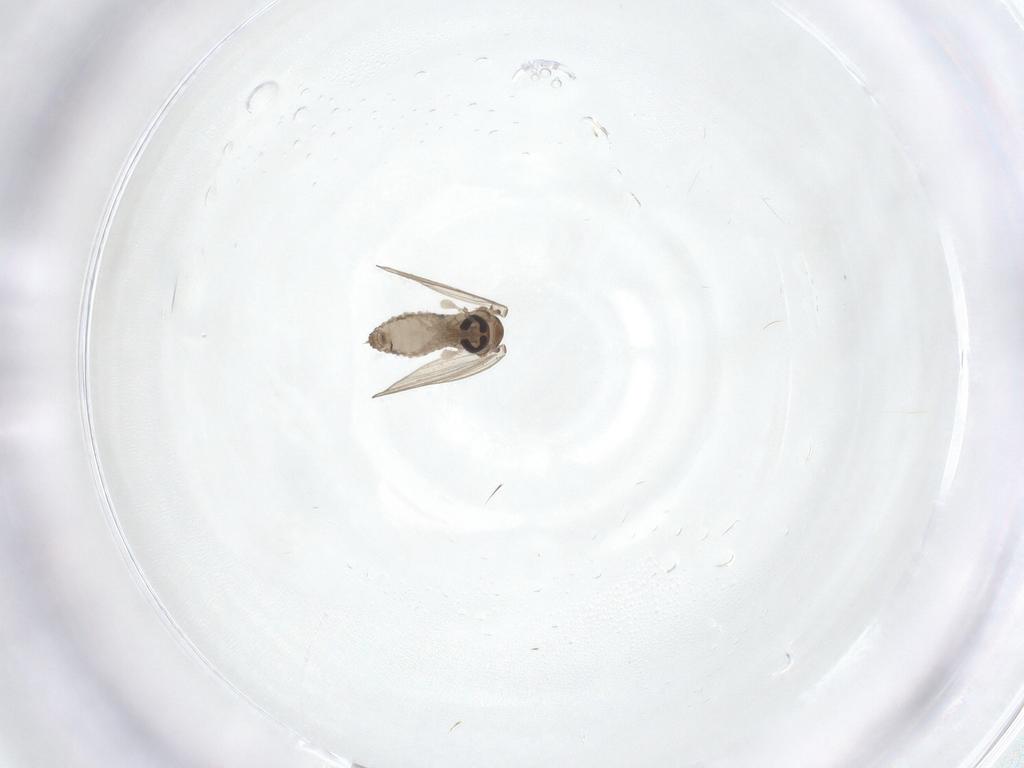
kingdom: Animalia
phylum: Arthropoda
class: Insecta
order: Diptera
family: Psychodidae
